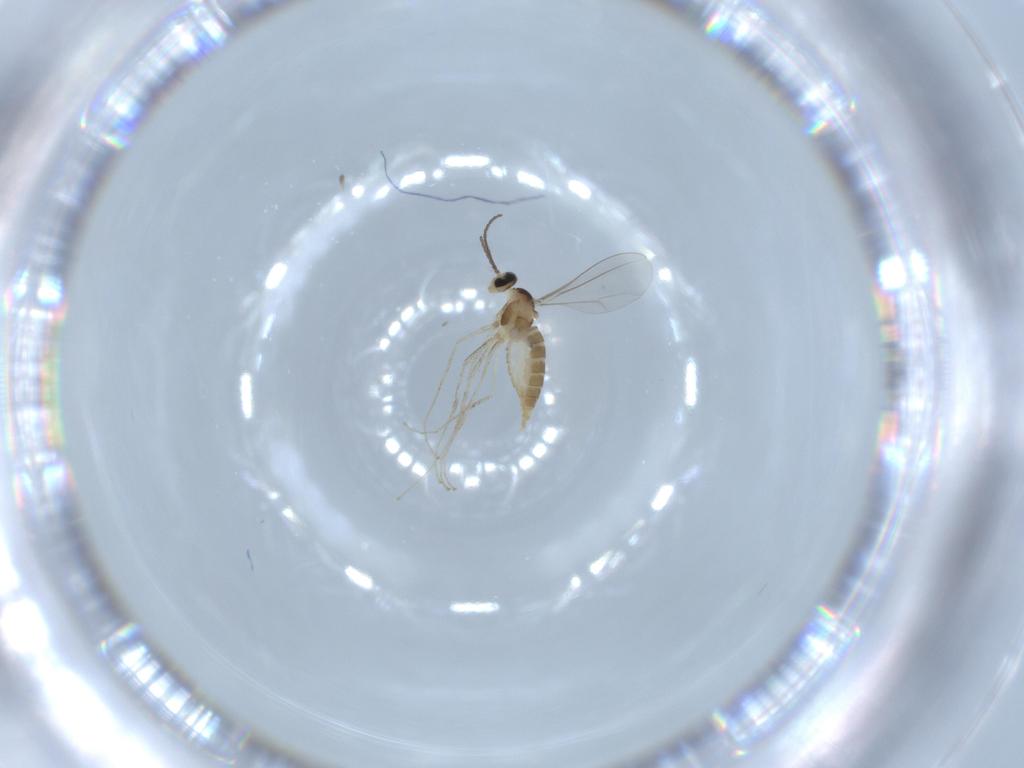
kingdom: Animalia
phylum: Arthropoda
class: Insecta
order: Diptera
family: Cecidomyiidae
